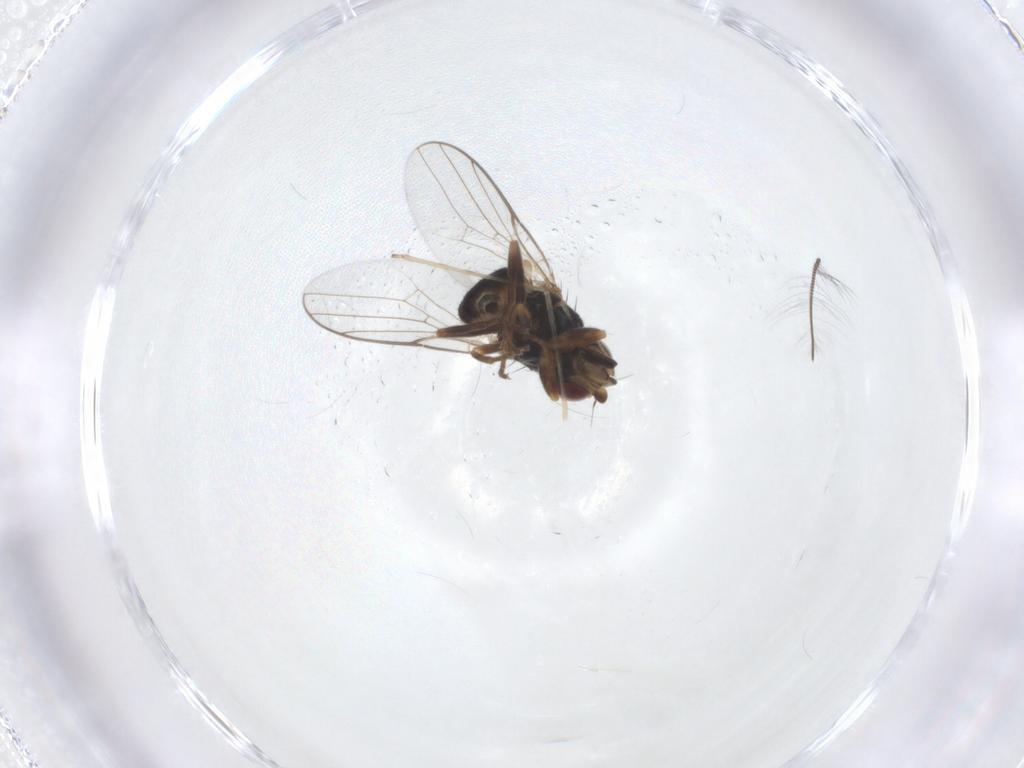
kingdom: Animalia
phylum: Arthropoda
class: Insecta
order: Diptera
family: Chloropidae
